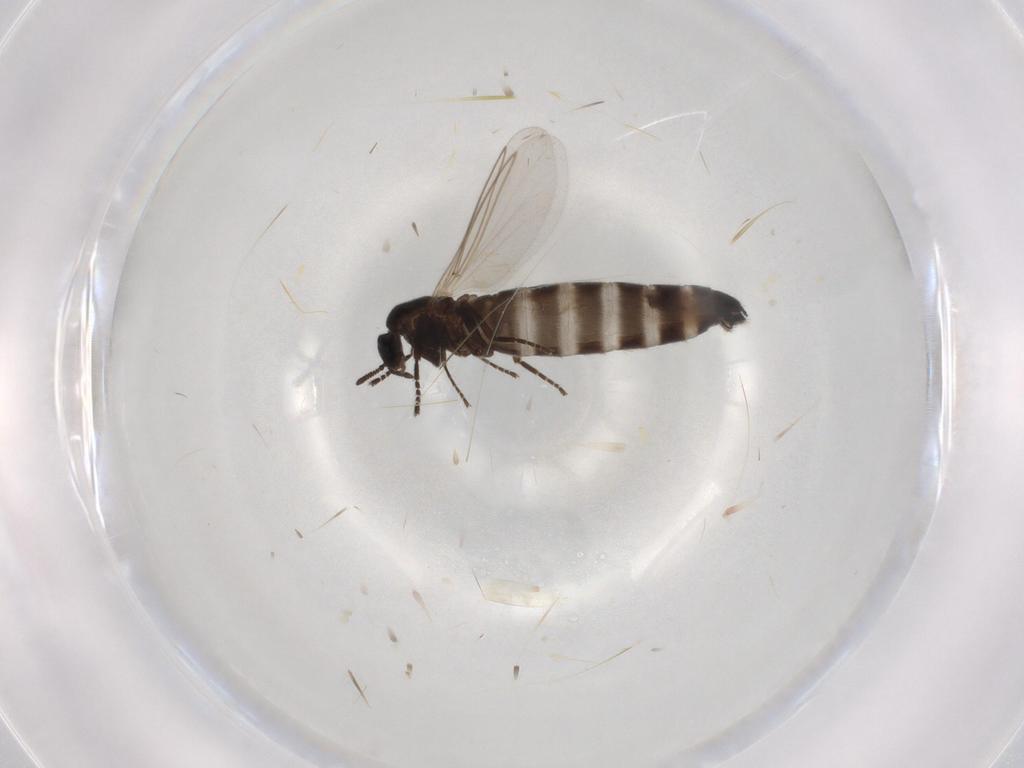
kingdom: Animalia
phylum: Arthropoda
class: Insecta
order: Diptera
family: Scatopsidae
